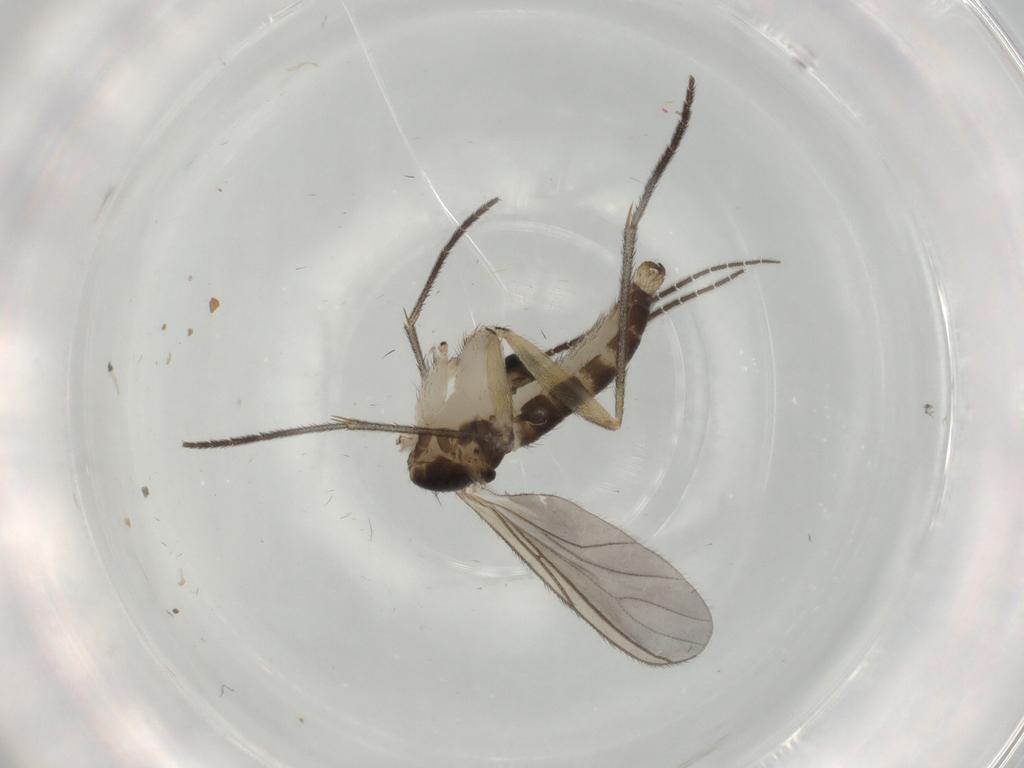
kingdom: Animalia
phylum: Arthropoda
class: Insecta
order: Diptera
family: Sciaridae
